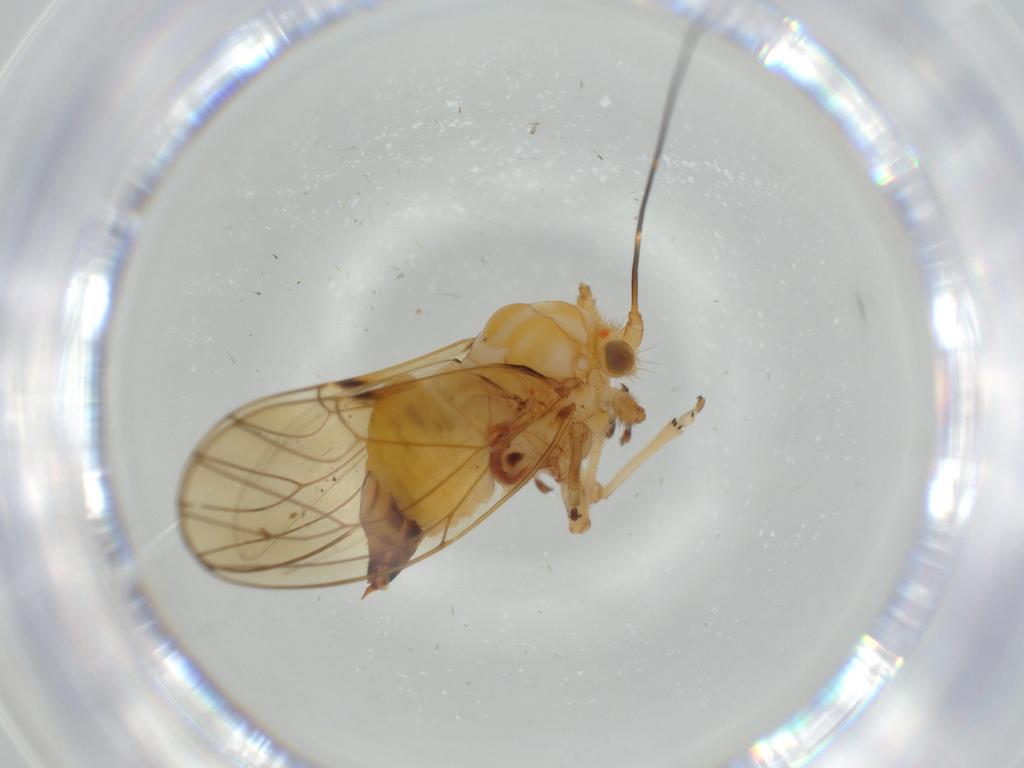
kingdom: Animalia
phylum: Arthropoda
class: Insecta
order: Hemiptera
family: Psyllidae
